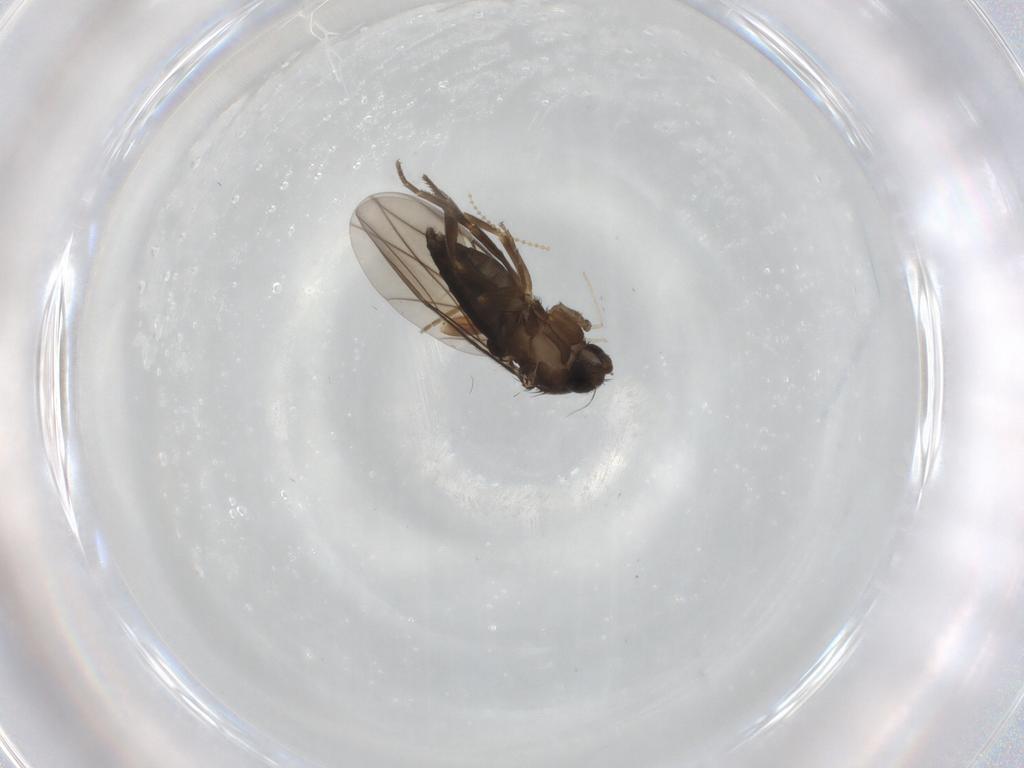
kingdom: Animalia
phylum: Arthropoda
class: Insecta
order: Diptera
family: Phoridae
